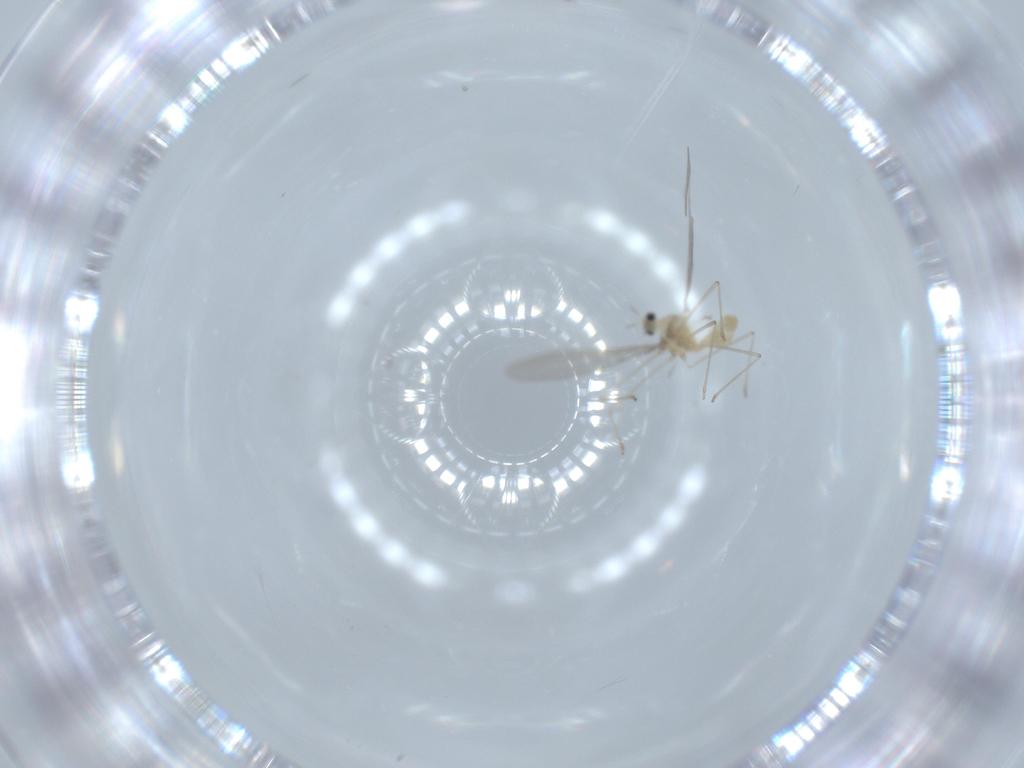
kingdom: Animalia
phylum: Arthropoda
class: Insecta
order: Diptera
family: Cecidomyiidae
